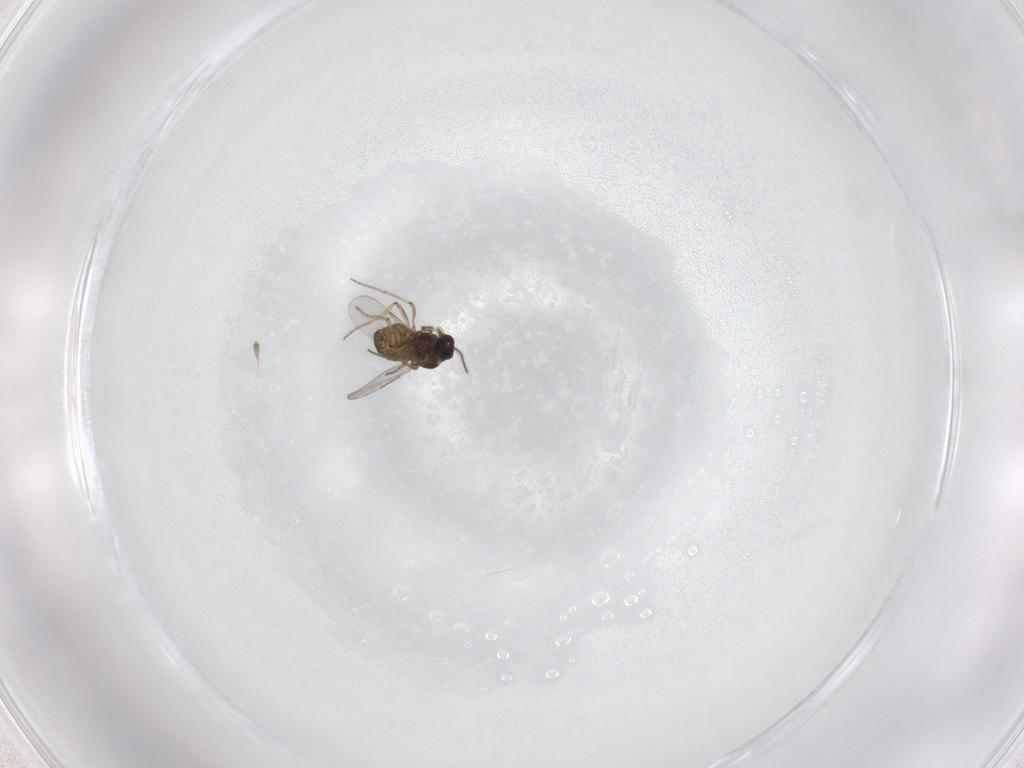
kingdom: Animalia
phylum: Arthropoda
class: Insecta
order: Diptera
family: Ceratopogonidae
